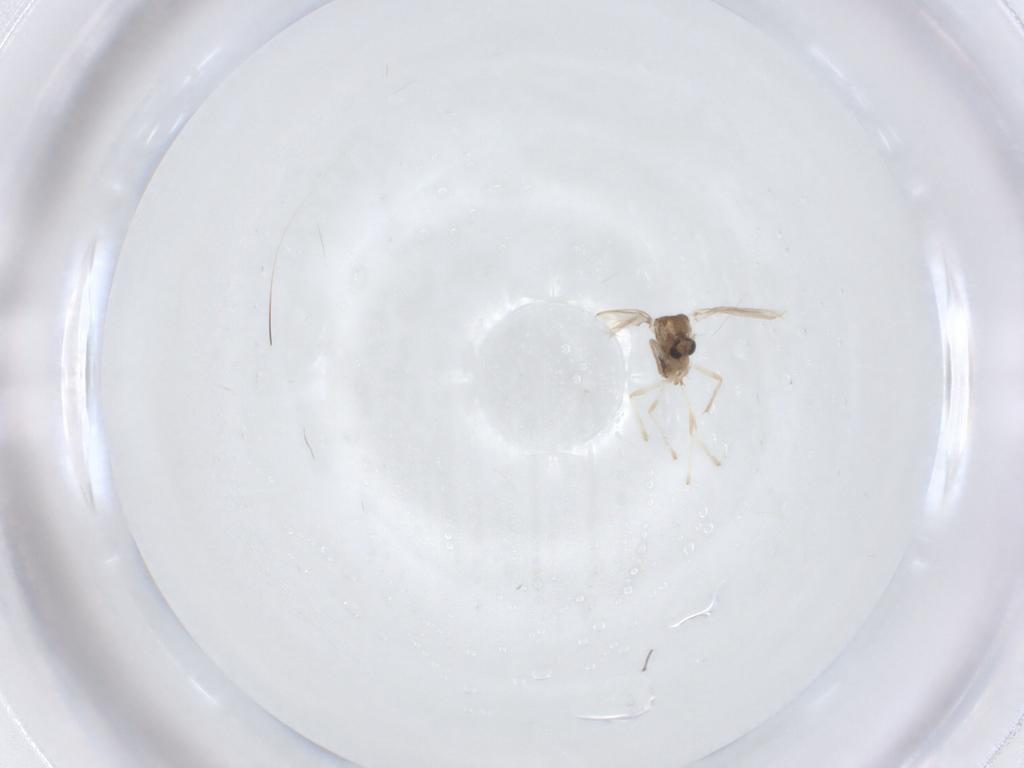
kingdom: Animalia
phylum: Arthropoda
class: Insecta
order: Diptera
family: Chironomidae
